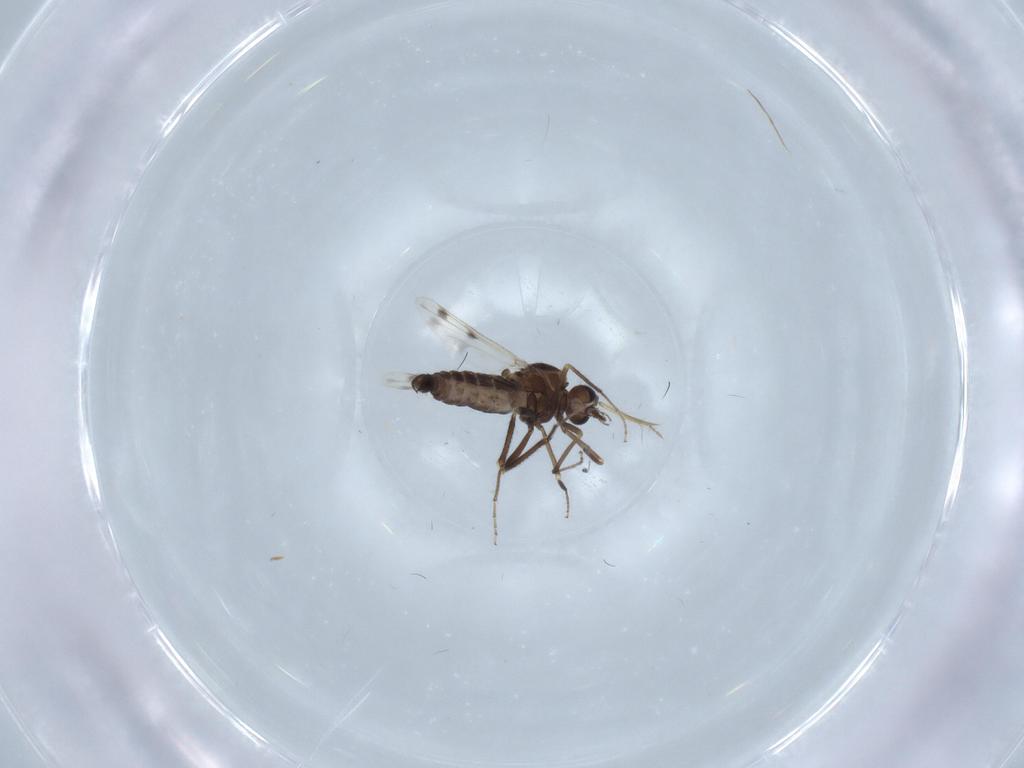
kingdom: Animalia
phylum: Arthropoda
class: Insecta
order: Diptera
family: Ceratopogonidae
